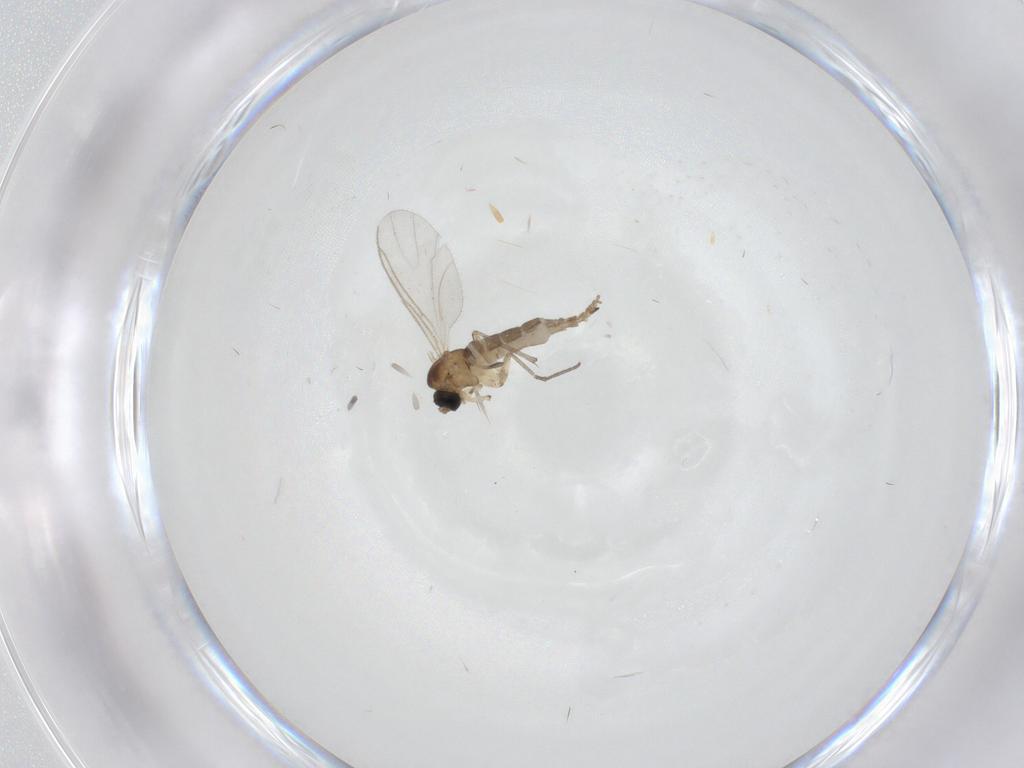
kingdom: Animalia
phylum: Arthropoda
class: Insecta
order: Diptera
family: Sciaridae
